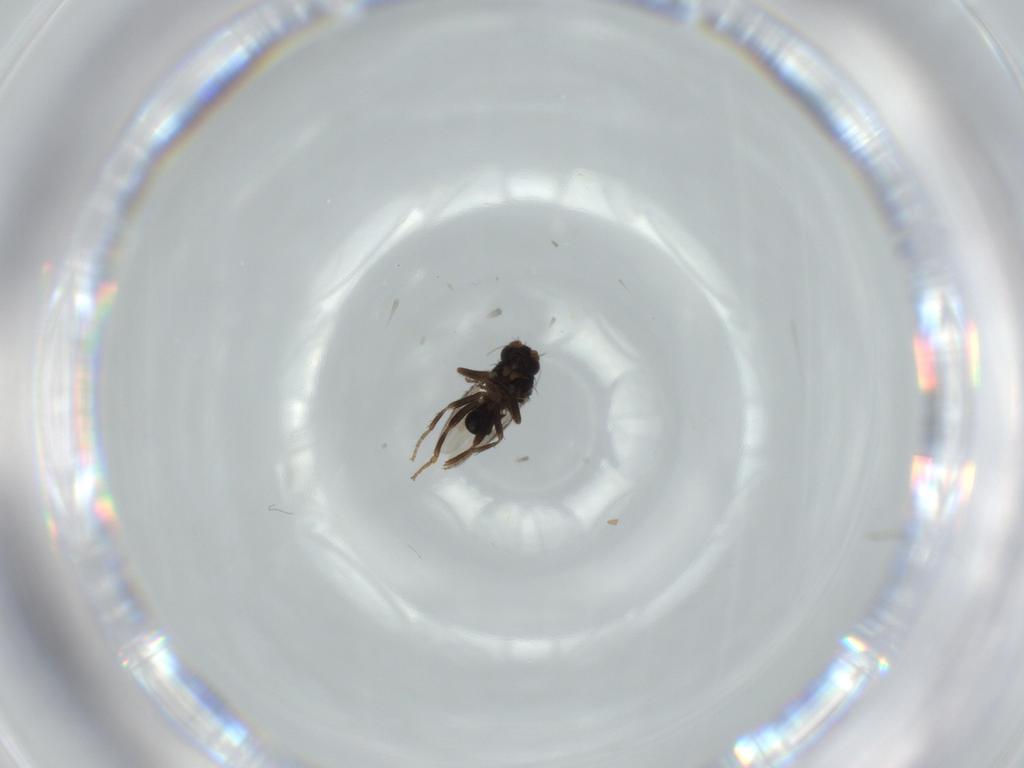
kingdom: Animalia
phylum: Arthropoda
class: Insecta
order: Diptera
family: Sphaeroceridae
